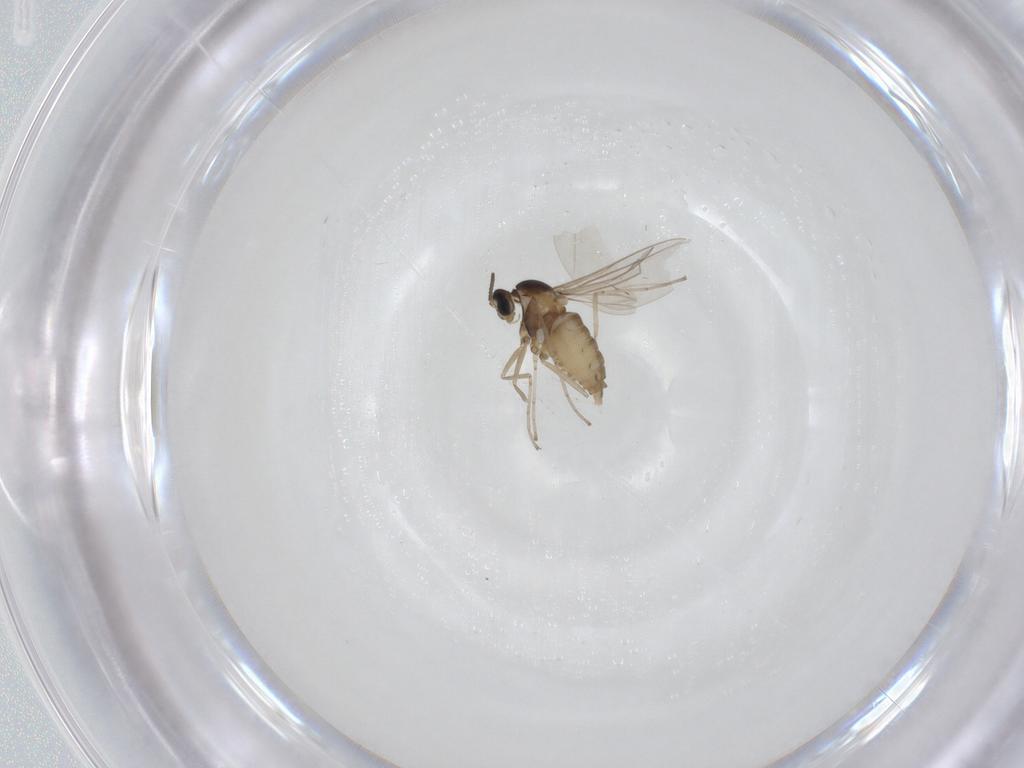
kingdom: Animalia
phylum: Arthropoda
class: Insecta
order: Diptera
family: Cecidomyiidae
